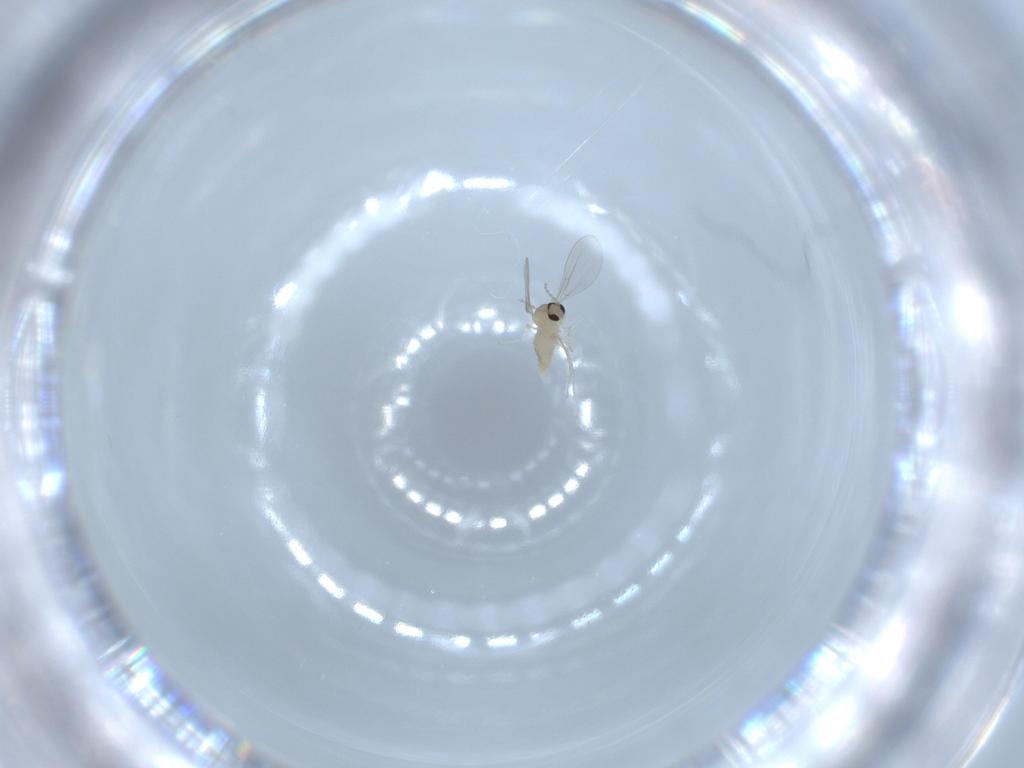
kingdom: Animalia
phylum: Arthropoda
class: Insecta
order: Diptera
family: Cecidomyiidae
